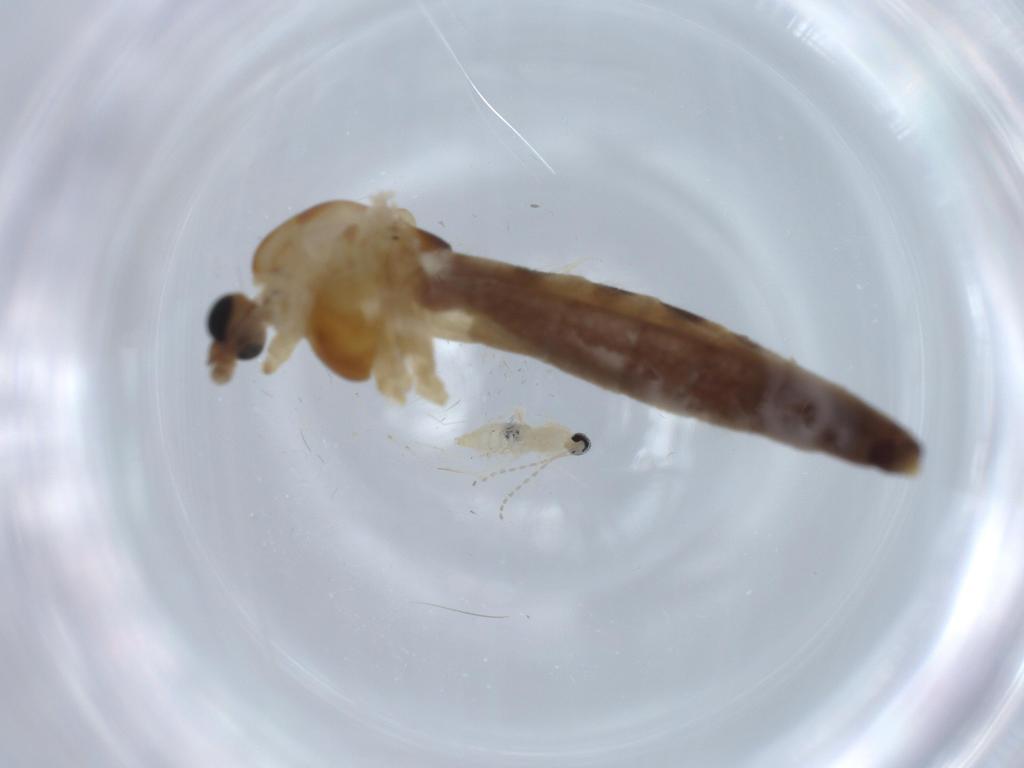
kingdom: Animalia
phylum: Arthropoda
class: Insecta
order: Diptera
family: Chironomidae
